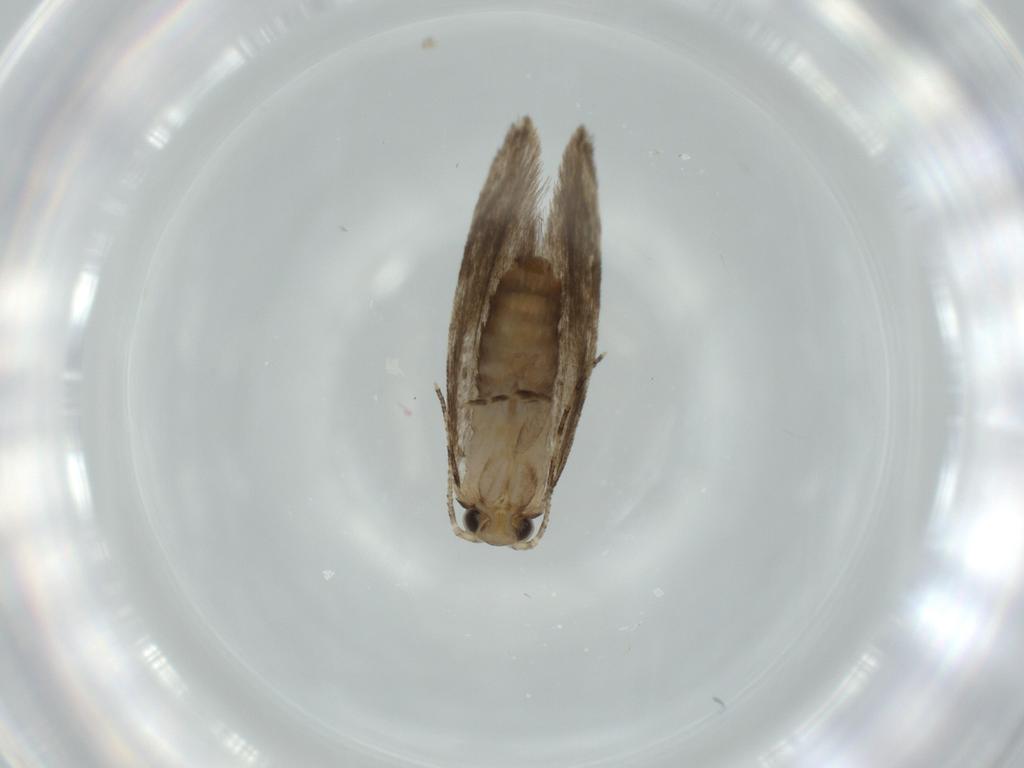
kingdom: Animalia
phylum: Arthropoda
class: Insecta
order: Lepidoptera
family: Tineidae
